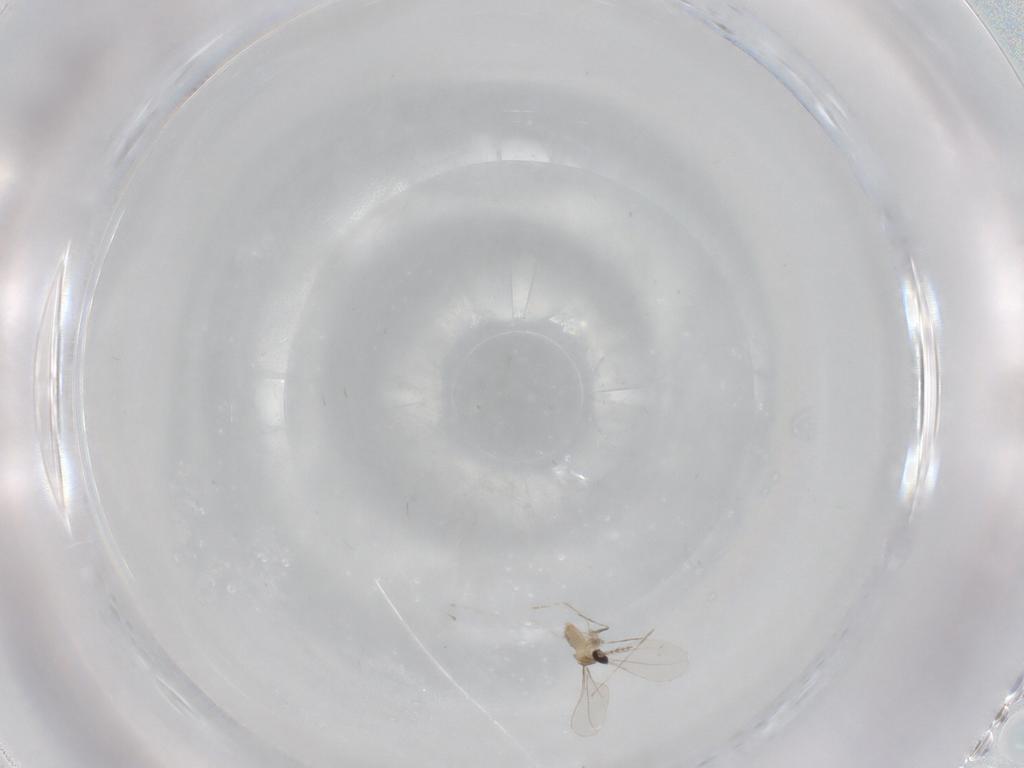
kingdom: Animalia
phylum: Arthropoda
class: Insecta
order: Diptera
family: Cecidomyiidae
